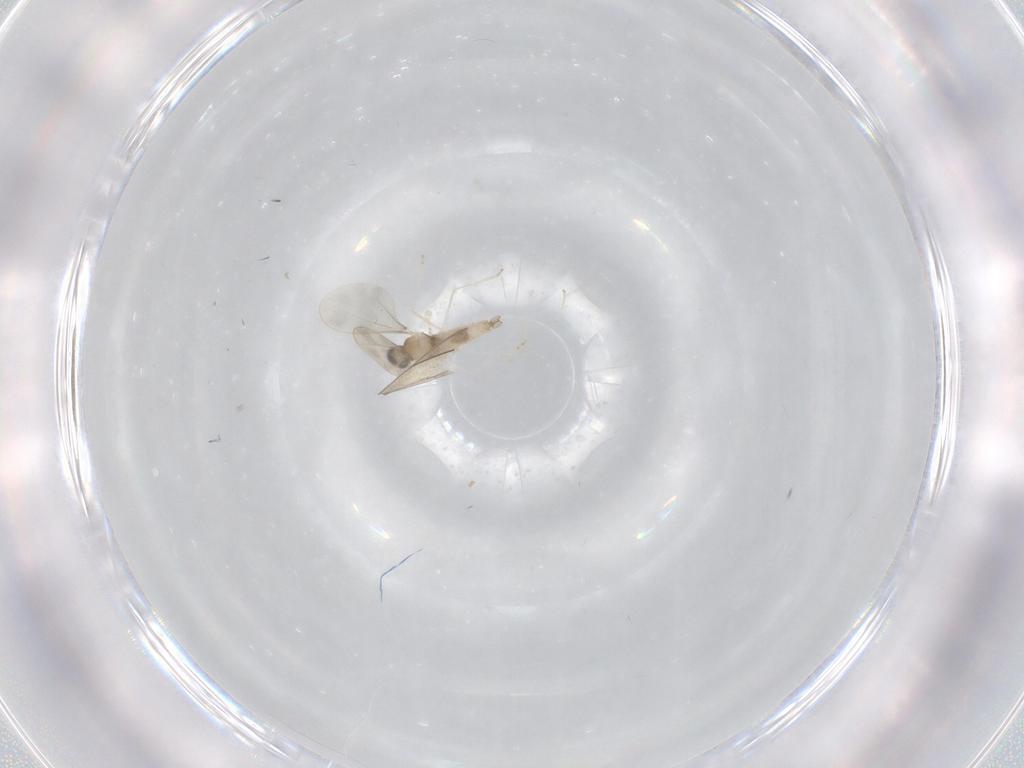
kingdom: Animalia
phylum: Arthropoda
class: Insecta
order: Diptera
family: Cecidomyiidae
